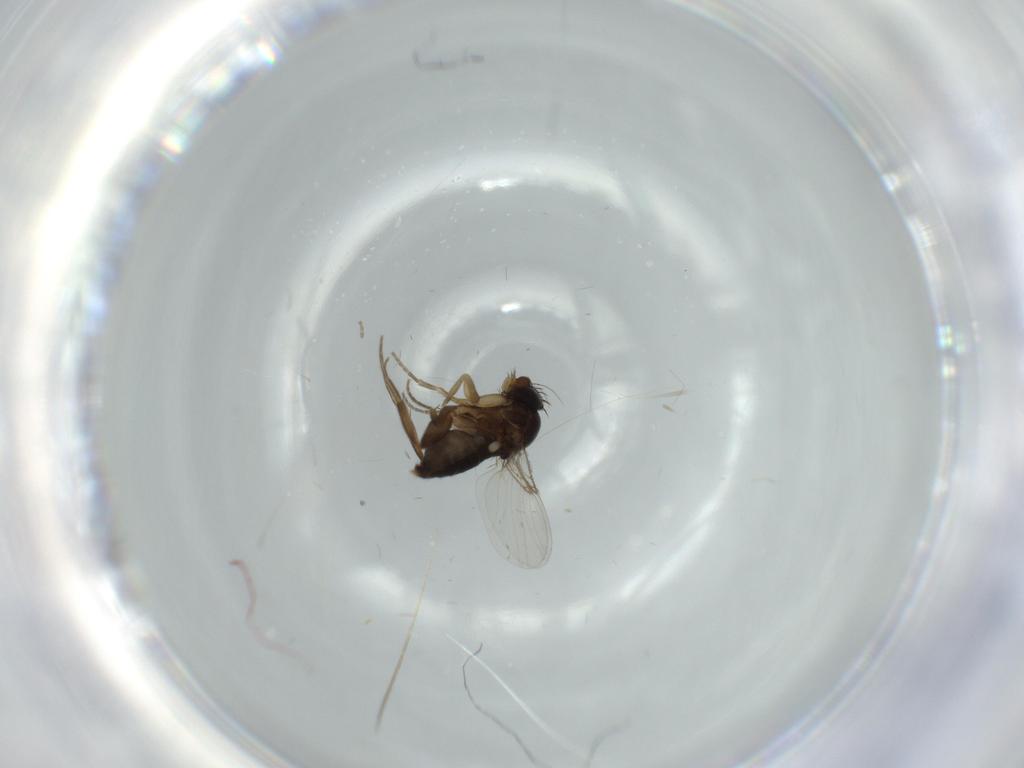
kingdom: Animalia
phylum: Arthropoda
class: Insecta
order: Diptera
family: Phoridae
